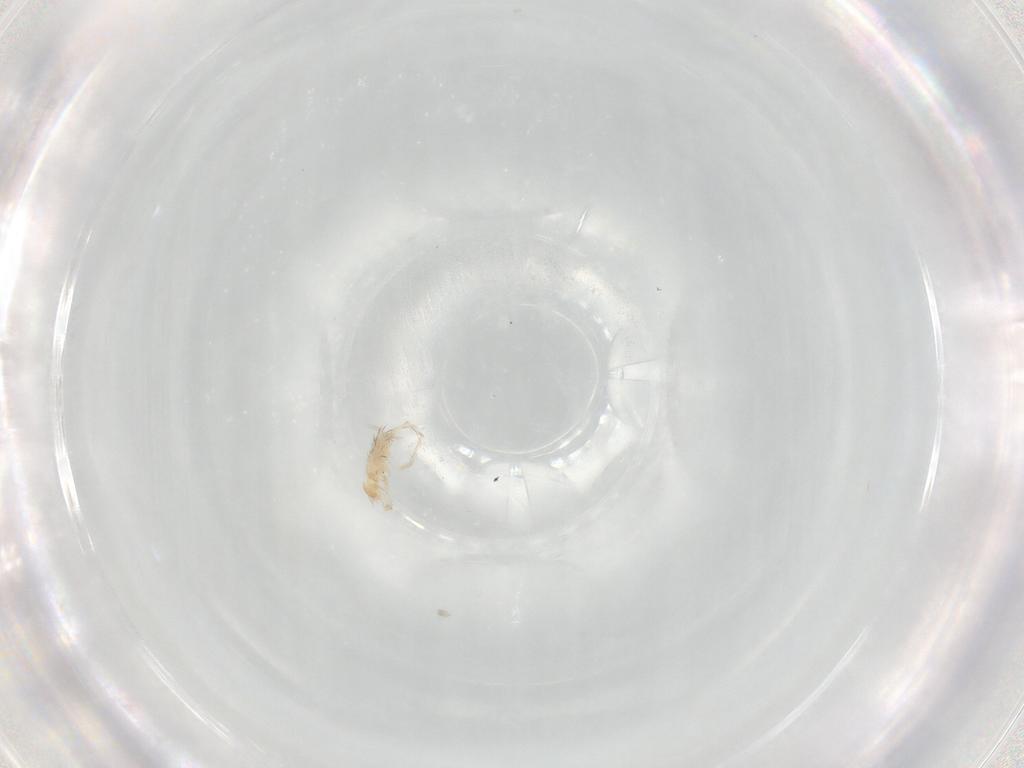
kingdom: Animalia
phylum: Arthropoda
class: Arachnida
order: Trombidiformes
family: Erythraeidae
